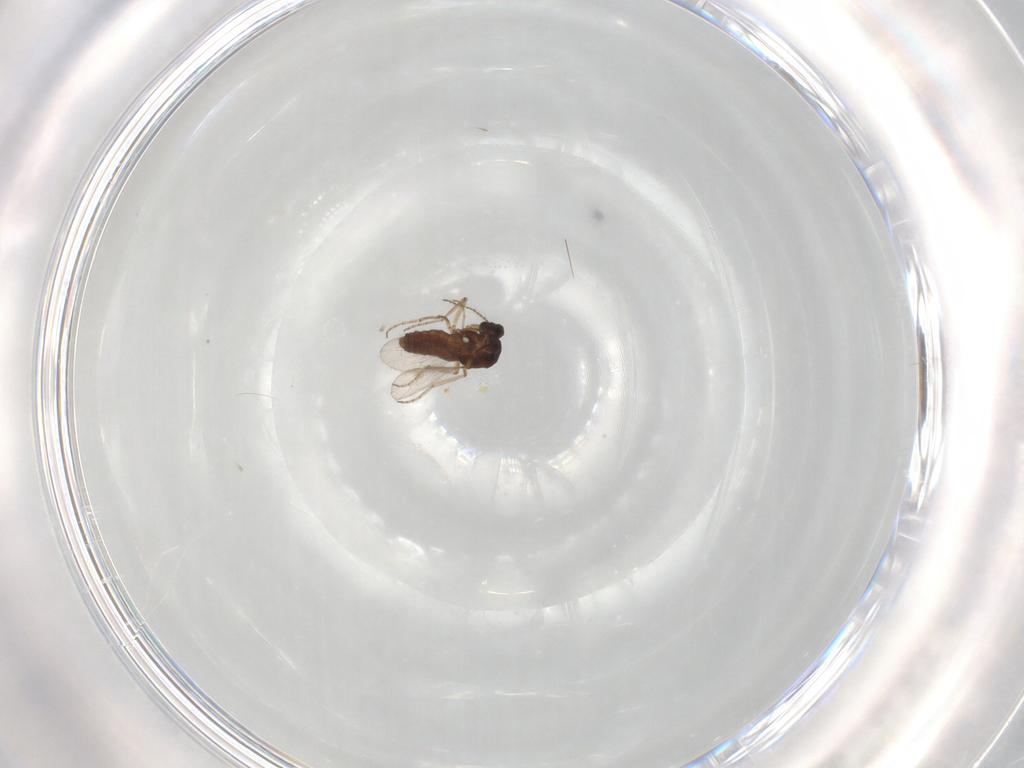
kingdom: Animalia
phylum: Arthropoda
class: Insecta
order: Diptera
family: Ceratopogonidae
